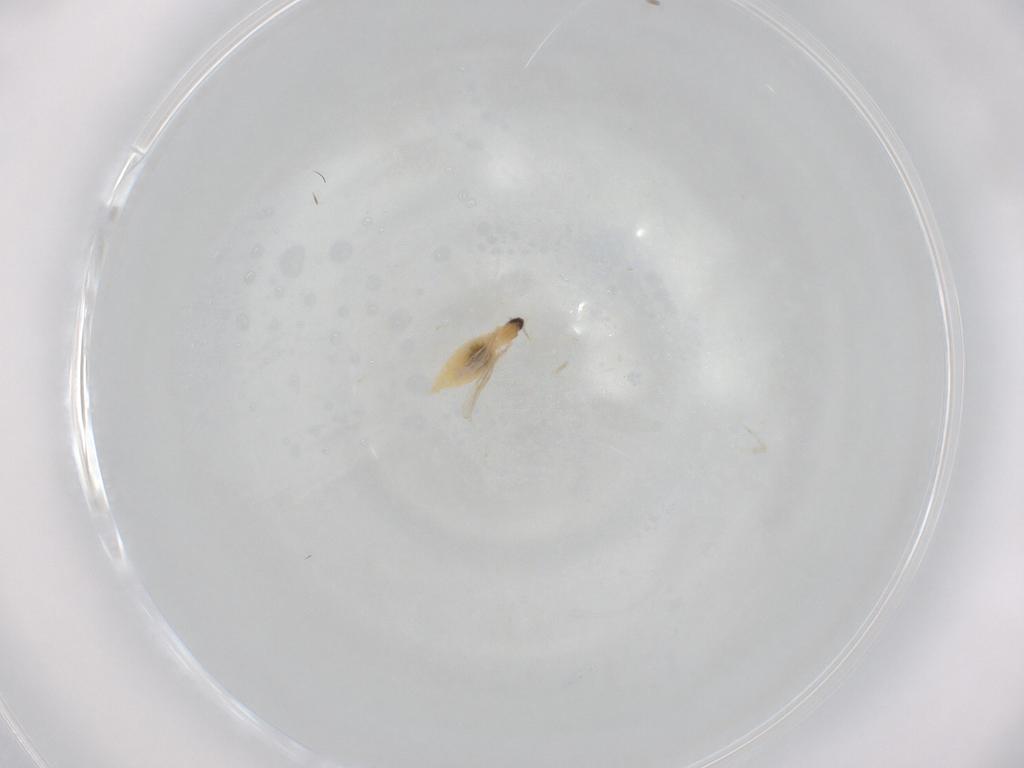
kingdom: Animalia
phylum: Arthropoda
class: Insecta
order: Diptera
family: Cecidomyiidae
